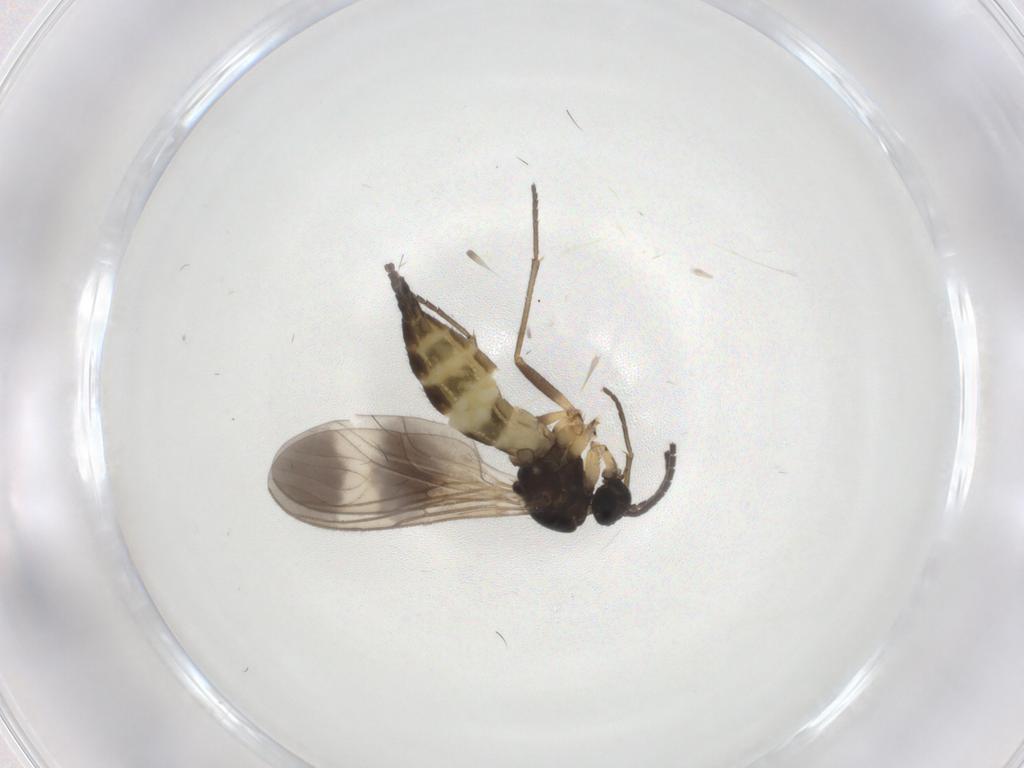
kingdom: Animalia
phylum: Arthropoda
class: Insecta
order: Diptera
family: Sciaridae
